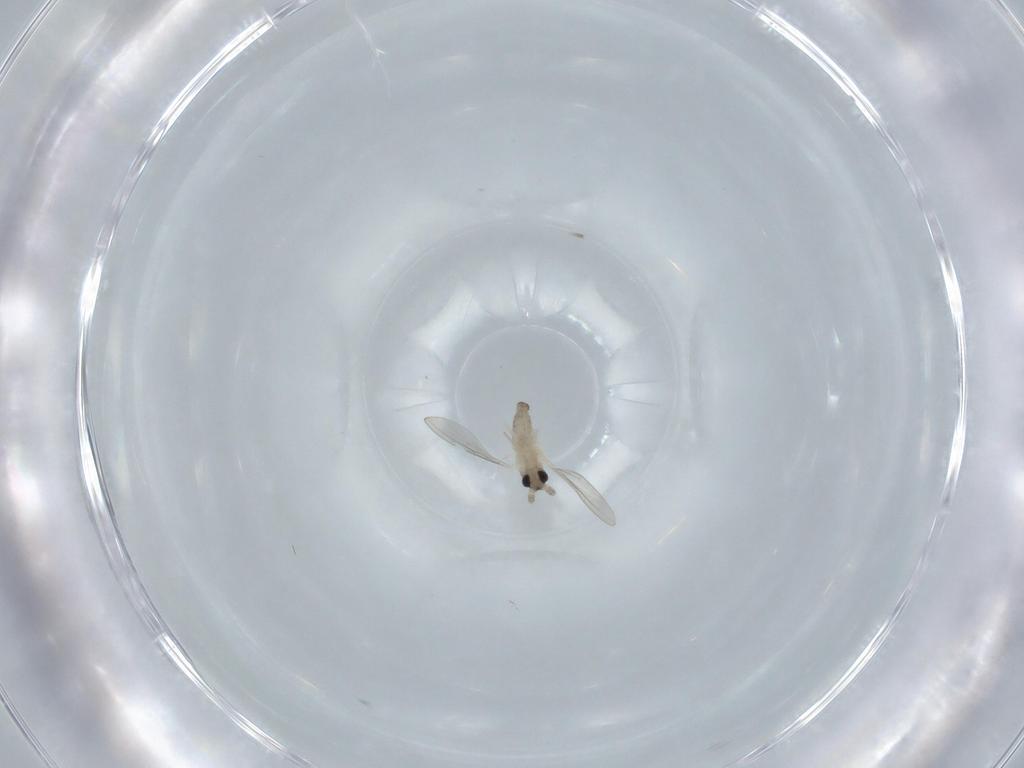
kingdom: Animalia
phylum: Arthropoda
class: Insecta
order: Diptera
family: Cecidomyiidae
